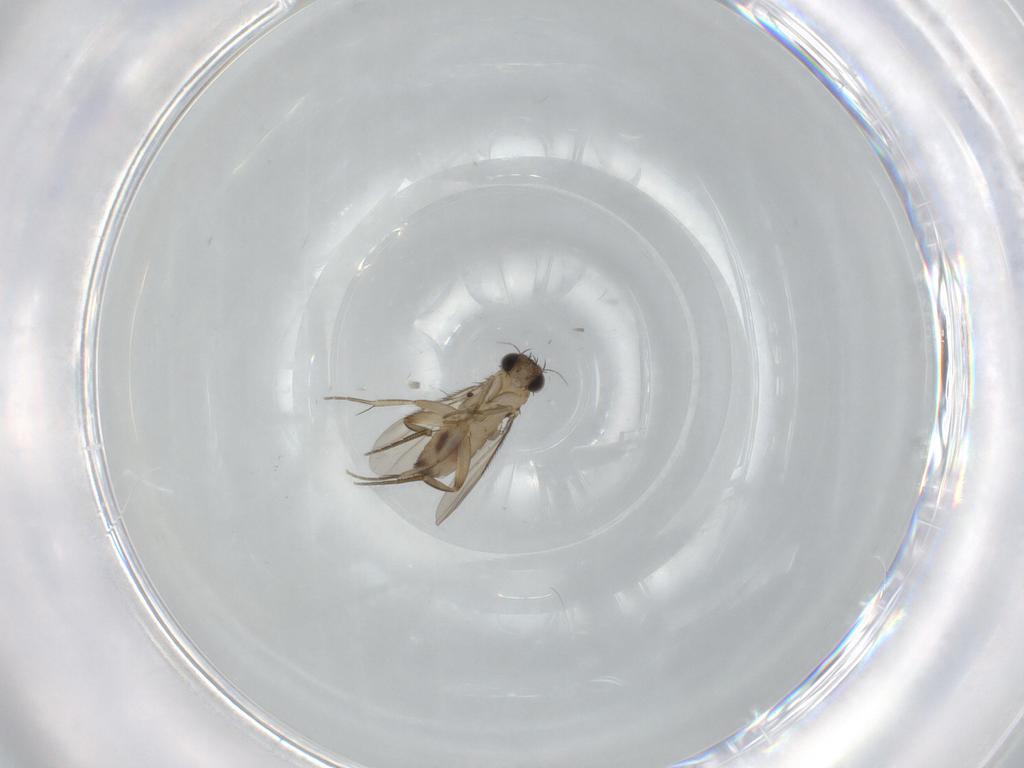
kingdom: Animalia
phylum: Arthropoda
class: Insecta
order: Diptera
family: Phoridae
